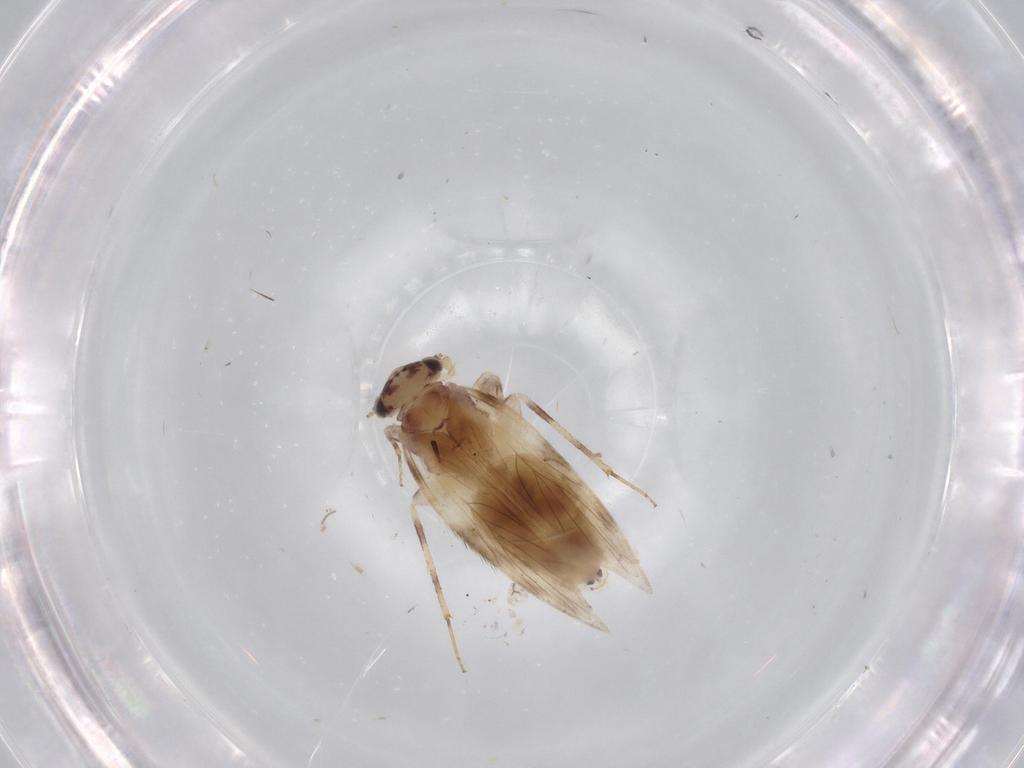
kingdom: Animalia
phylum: Arthropoda
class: Insecta
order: Psocodea
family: Lepidopsocidae
